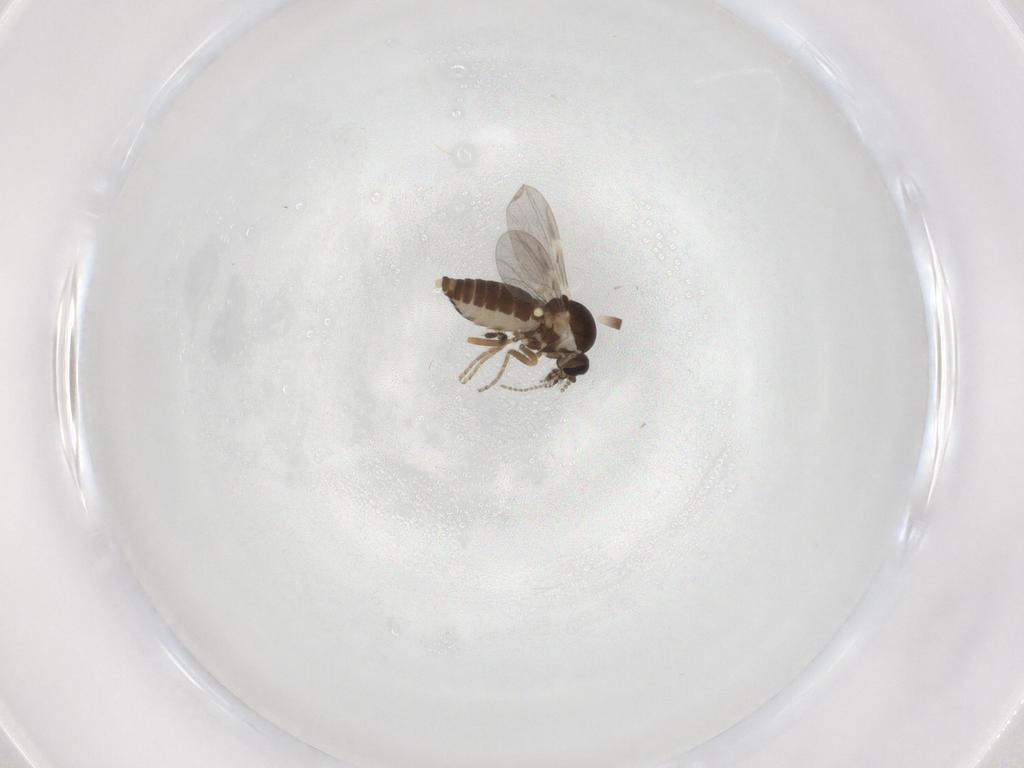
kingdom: Animalia
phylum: Arthropoda
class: Insecta
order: Diptera
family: Ceratopogonidae
